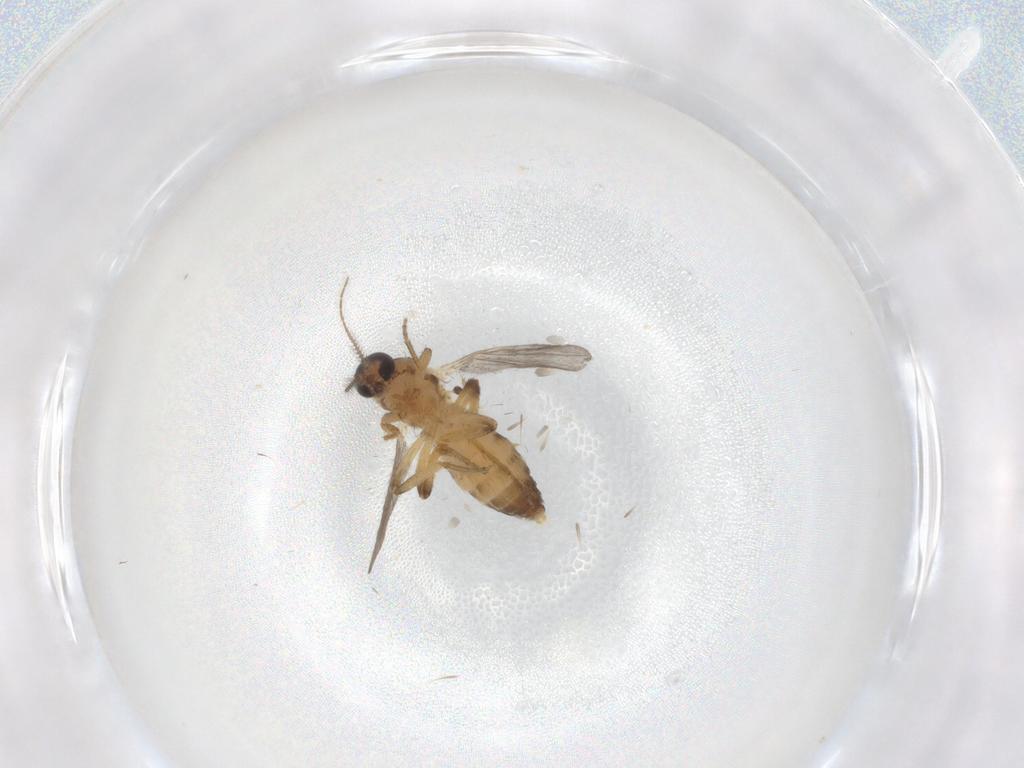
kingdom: Animalia
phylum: Arthropoda
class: Insecta
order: Diptera
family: Ceratopogonidae
